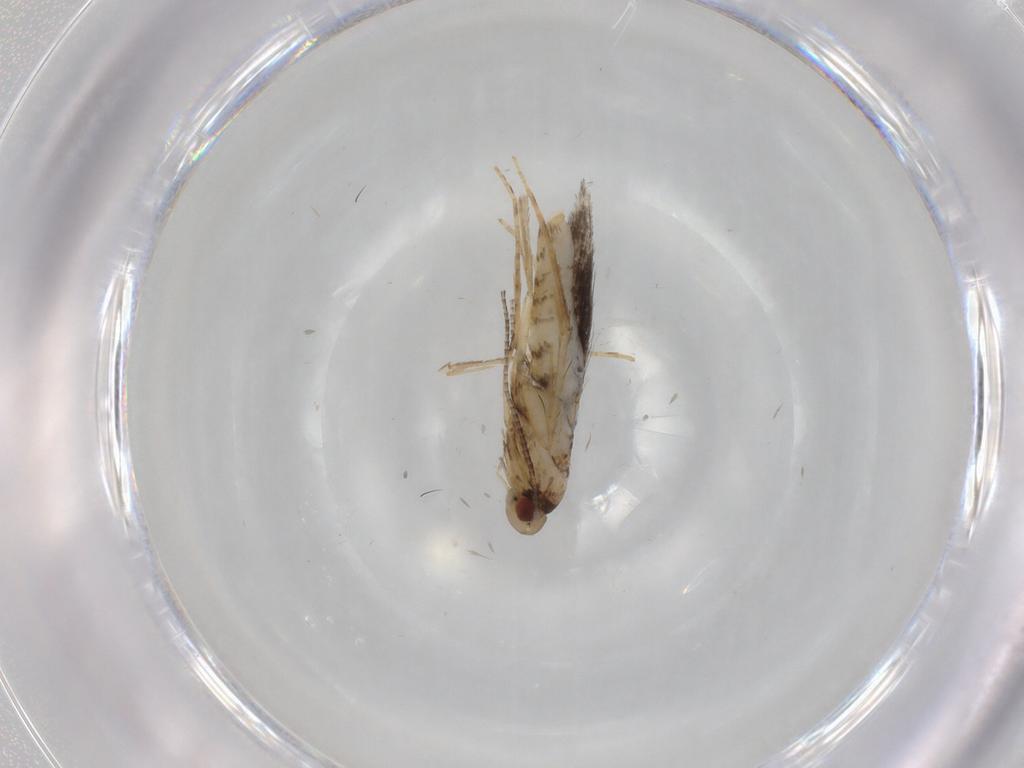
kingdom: Animalia
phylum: Arthropoda
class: Insecta
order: Lepidoptera
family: Gracillariidae
